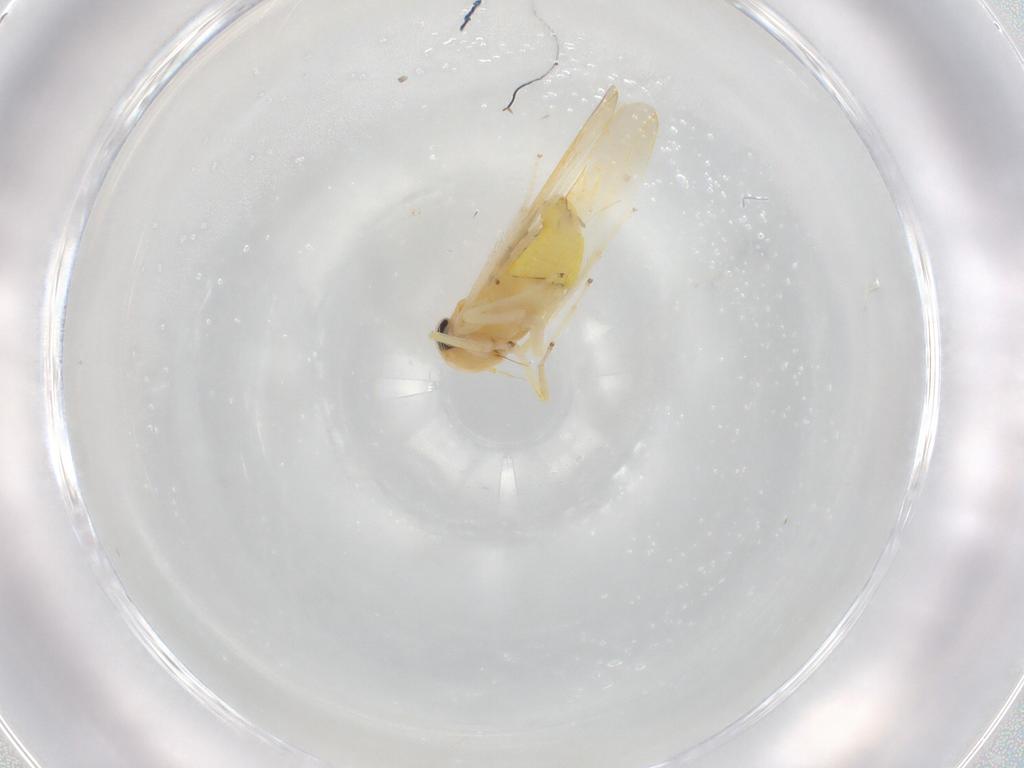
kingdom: Animalia
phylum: Arthropoda
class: Insecta
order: Hemiptera
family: Cicadellidae
